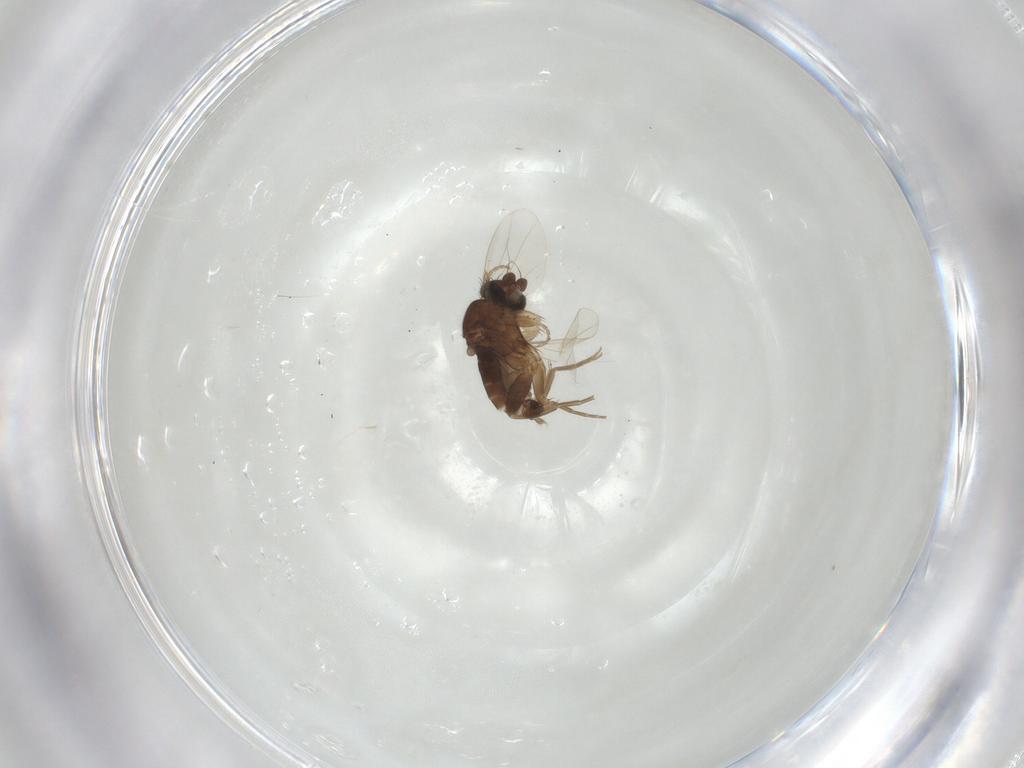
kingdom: Animalia
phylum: Arthropoda
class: Insecta
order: Diptera
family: Phoridae
